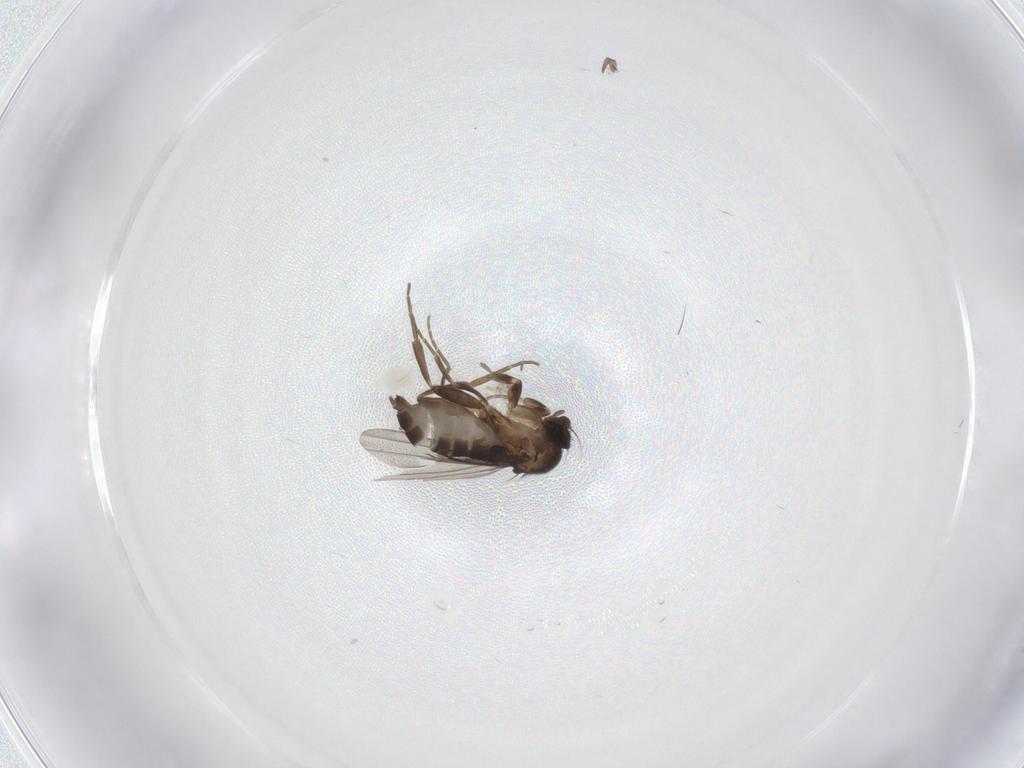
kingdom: Animalia
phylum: Arthropoda
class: Insecta
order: Diptera
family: Phoridae
